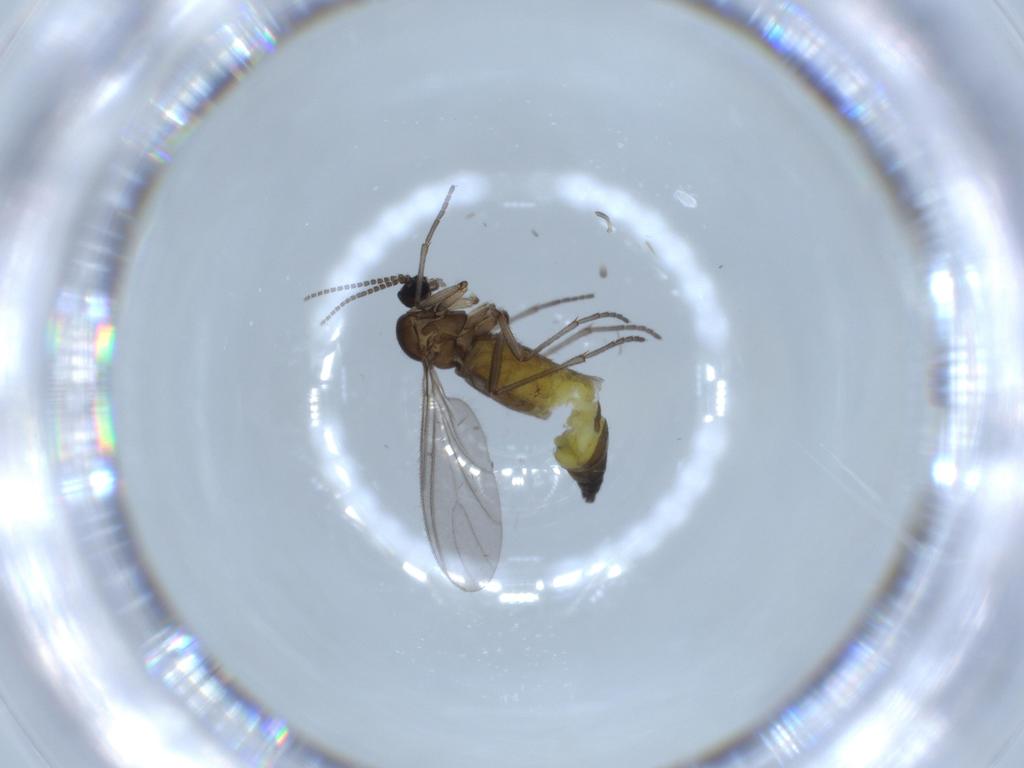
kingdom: Animalia
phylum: Arthropoda
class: Insecta
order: Diptera
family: Sciaridae
